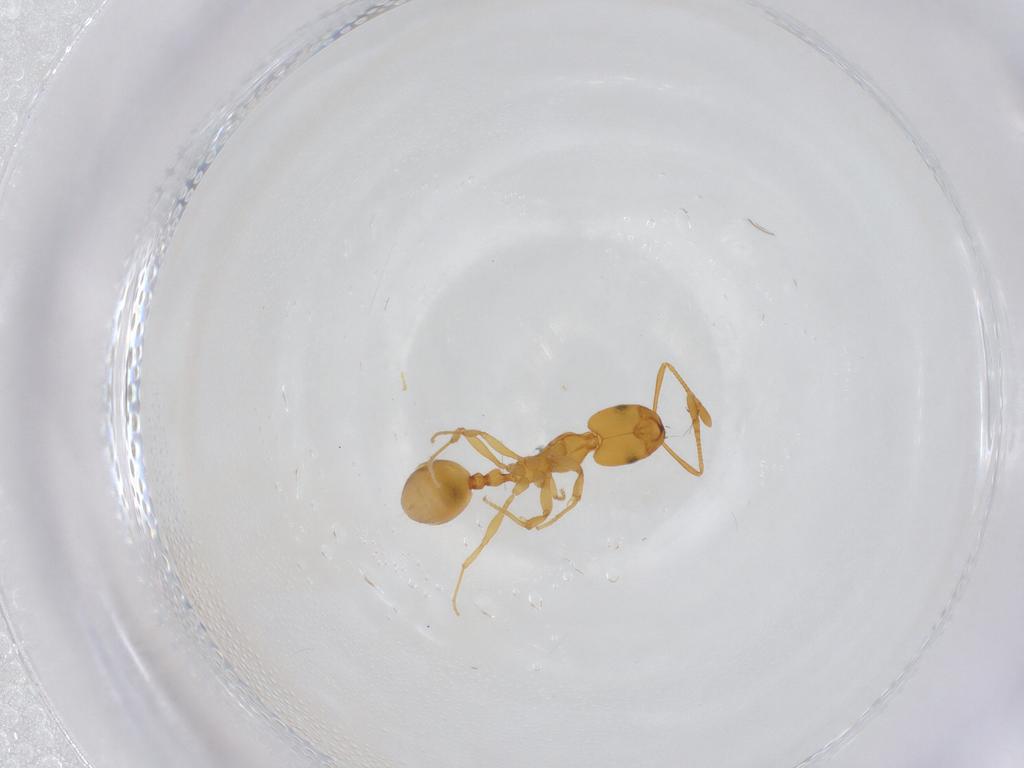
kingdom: Animalia
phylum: Arthropoda
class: Insecta
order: Hymenoptera
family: Formicidae
